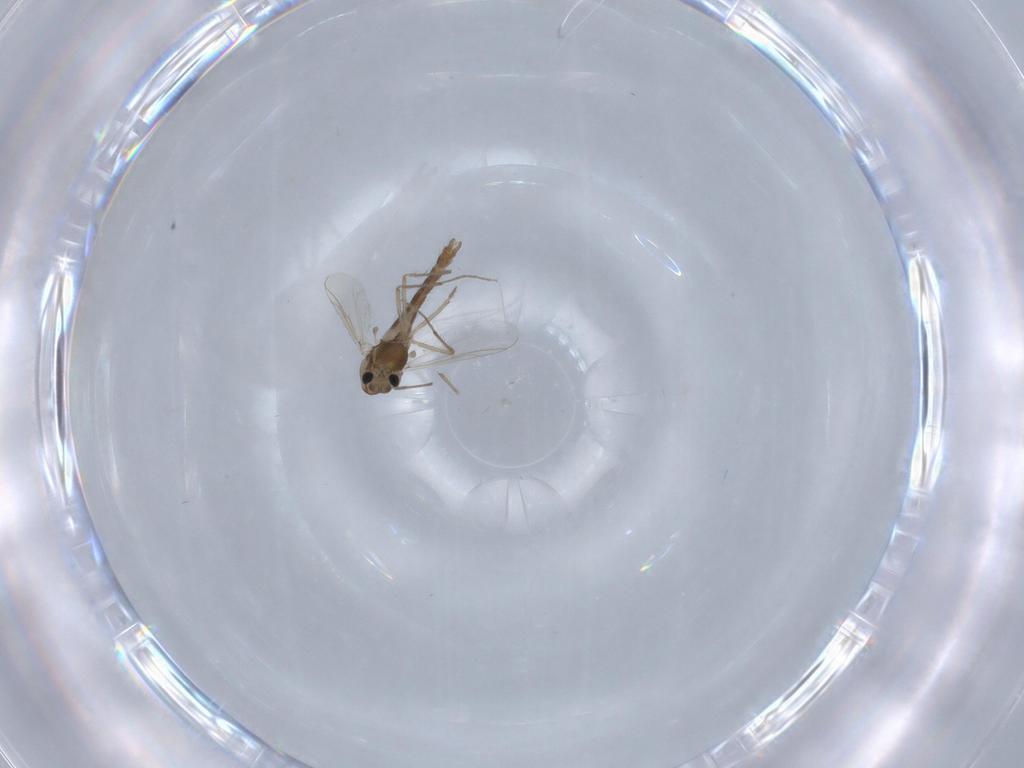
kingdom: Animalia
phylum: Arthropoda
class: Insecta
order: Diptera
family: Chironomidae
